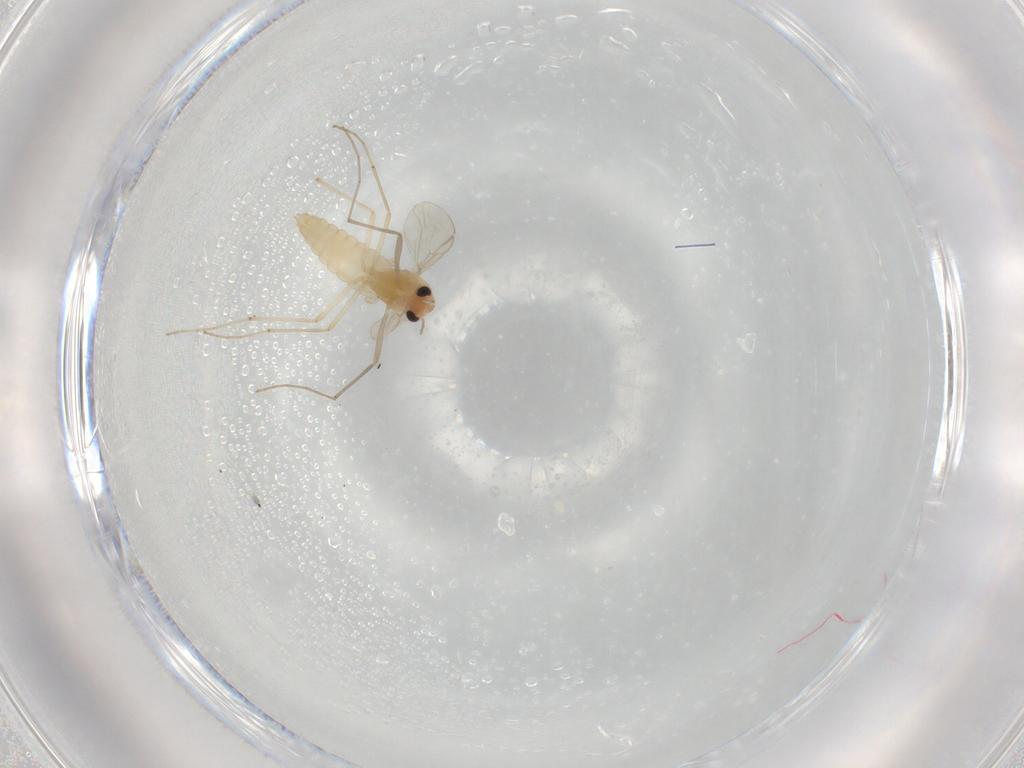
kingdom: Animalia
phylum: Arthropoda
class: Insecta
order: Diptera
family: Chironomidae
